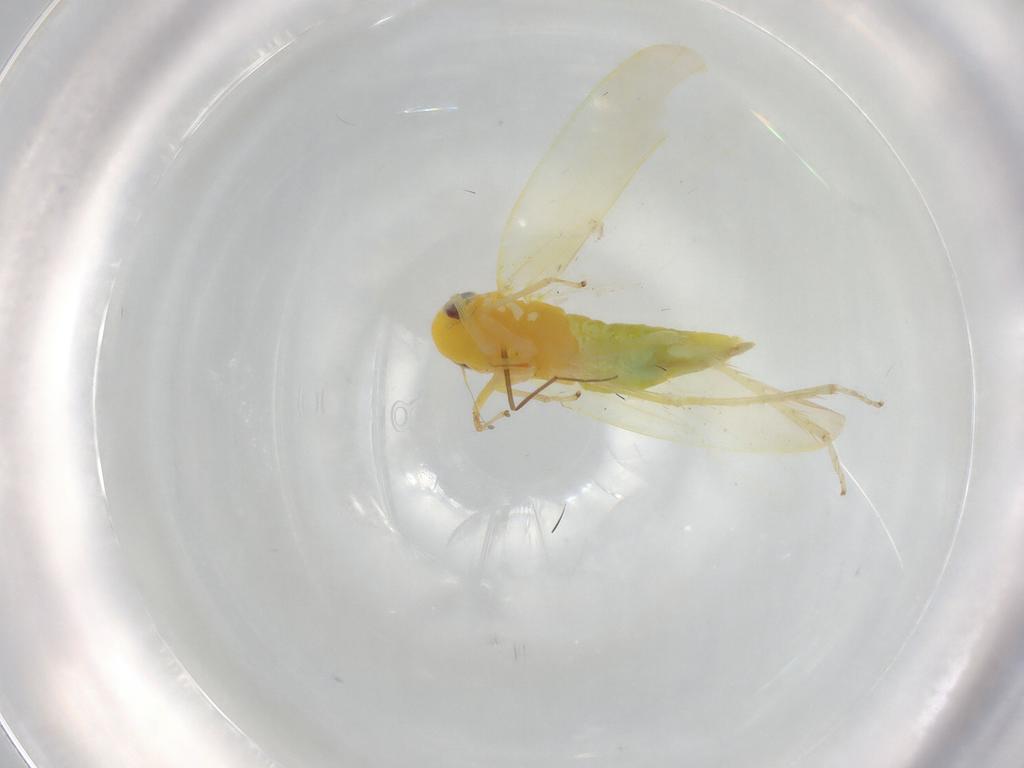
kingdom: Animalia
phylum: Arthropoda
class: Insecta
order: Hemiptera
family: Cicadellidae
